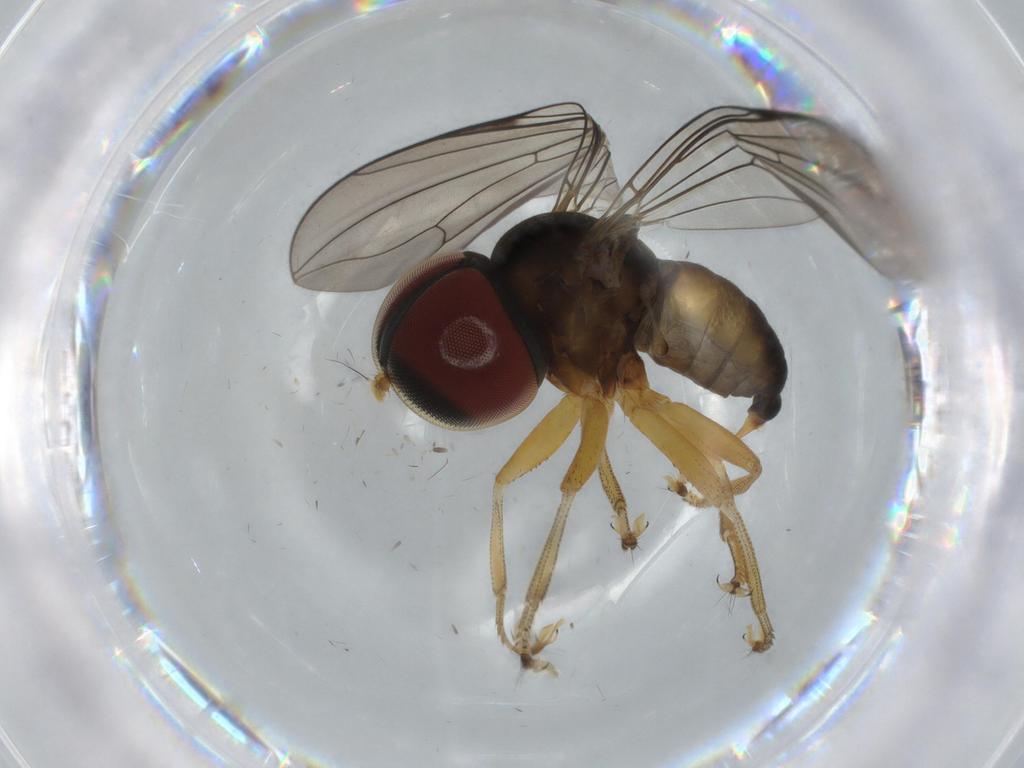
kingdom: Animalia
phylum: Arthropoda
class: Insecta
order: Diptera
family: Pipunculidae
